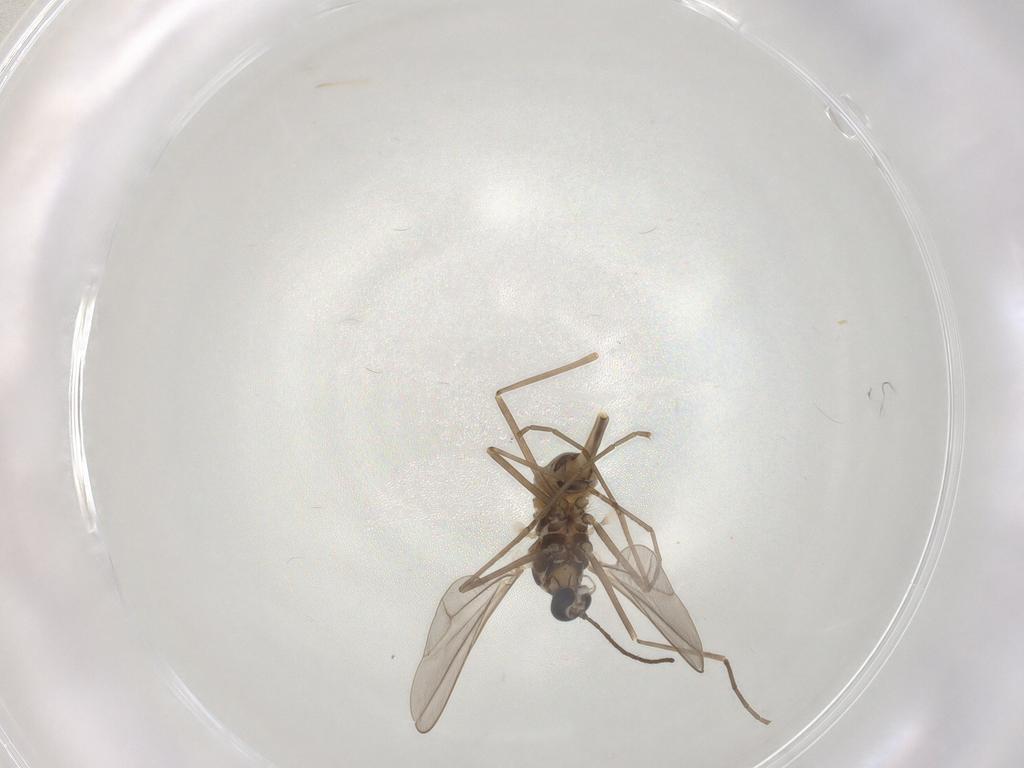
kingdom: Animalia
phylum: Arthropoda
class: Insecta
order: Diptera
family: Cecidomyiidae
